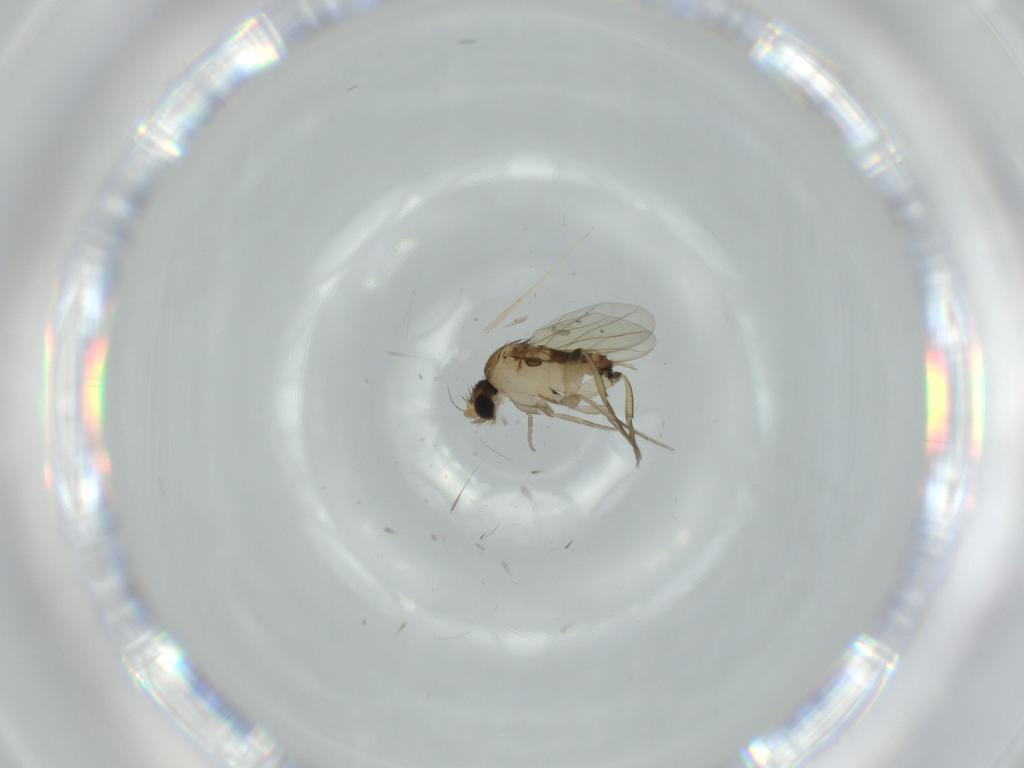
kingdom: Animalia
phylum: Arthropoda
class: Insecta
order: Diptera
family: Phoridae
